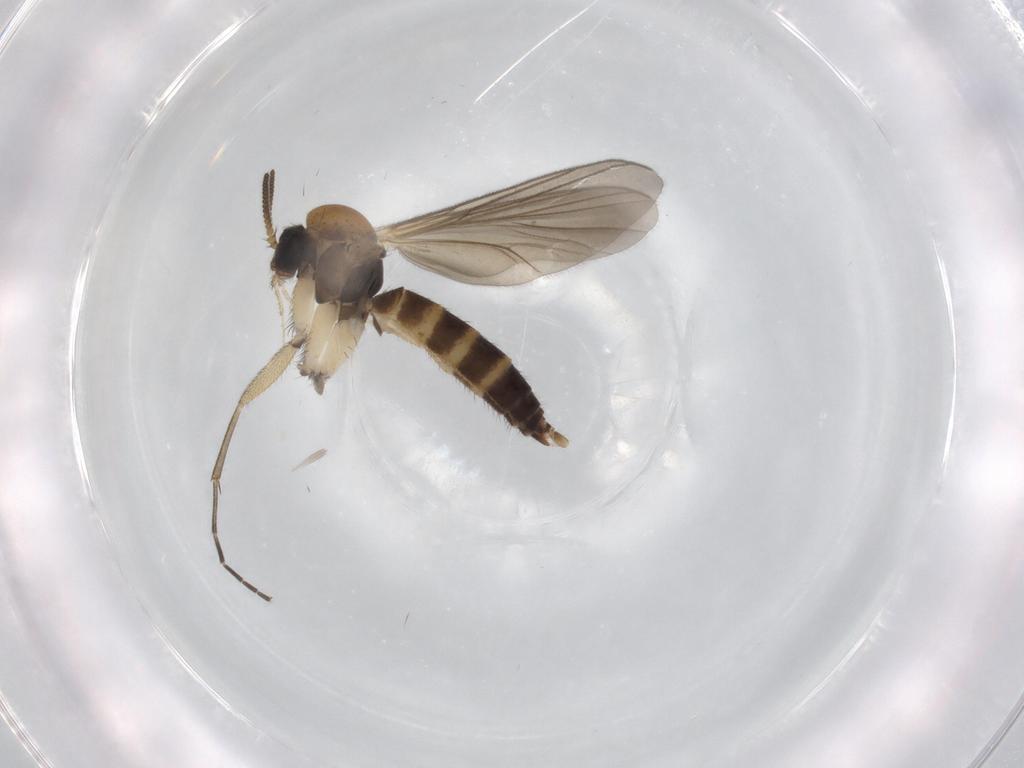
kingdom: Animalia
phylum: Arthropoda
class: Insecta
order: Diptera
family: Mycetophilidae
